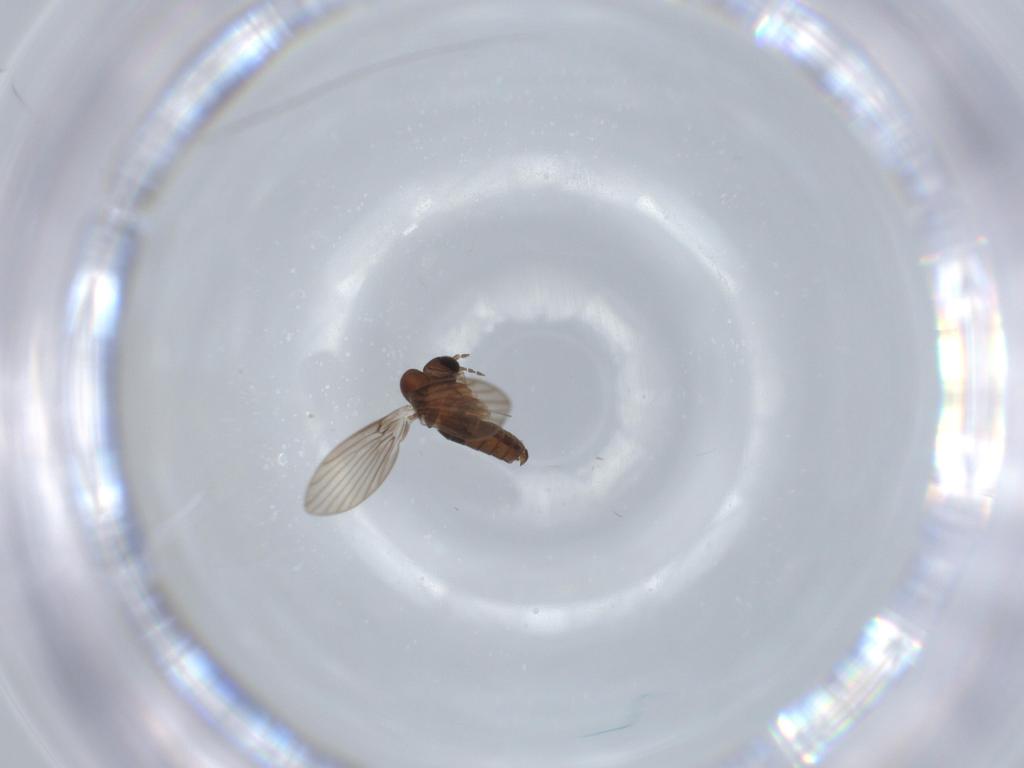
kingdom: Animalia
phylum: Arthropoda
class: Insecta
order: Diptera
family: Psychodidae
